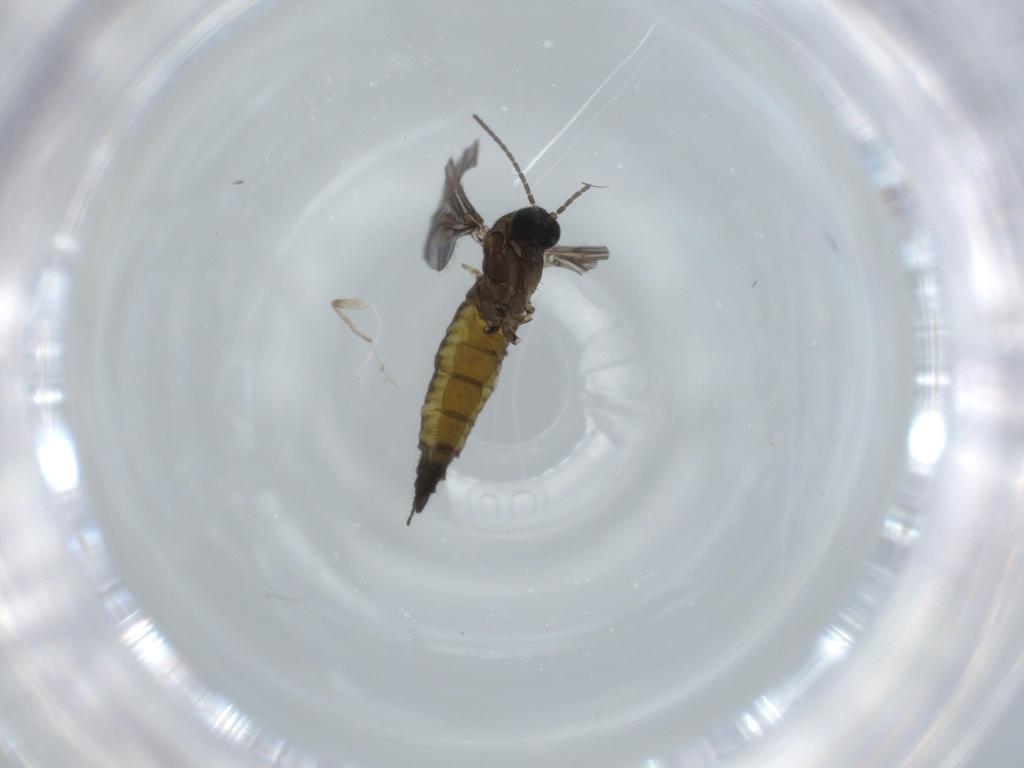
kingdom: Animalia
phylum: Arthropoda
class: Insecta
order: Diptera
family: Sciaridae
